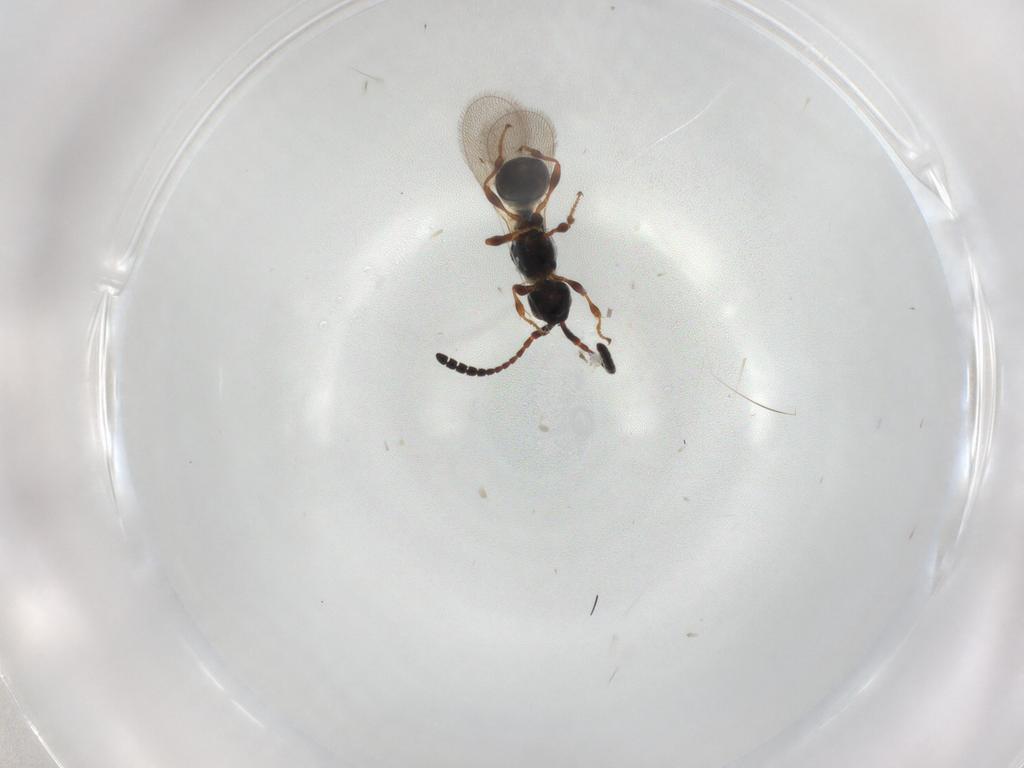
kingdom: Animalia
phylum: Arthropoda
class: Insecta
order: Hymenoptera
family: Diapriidae
